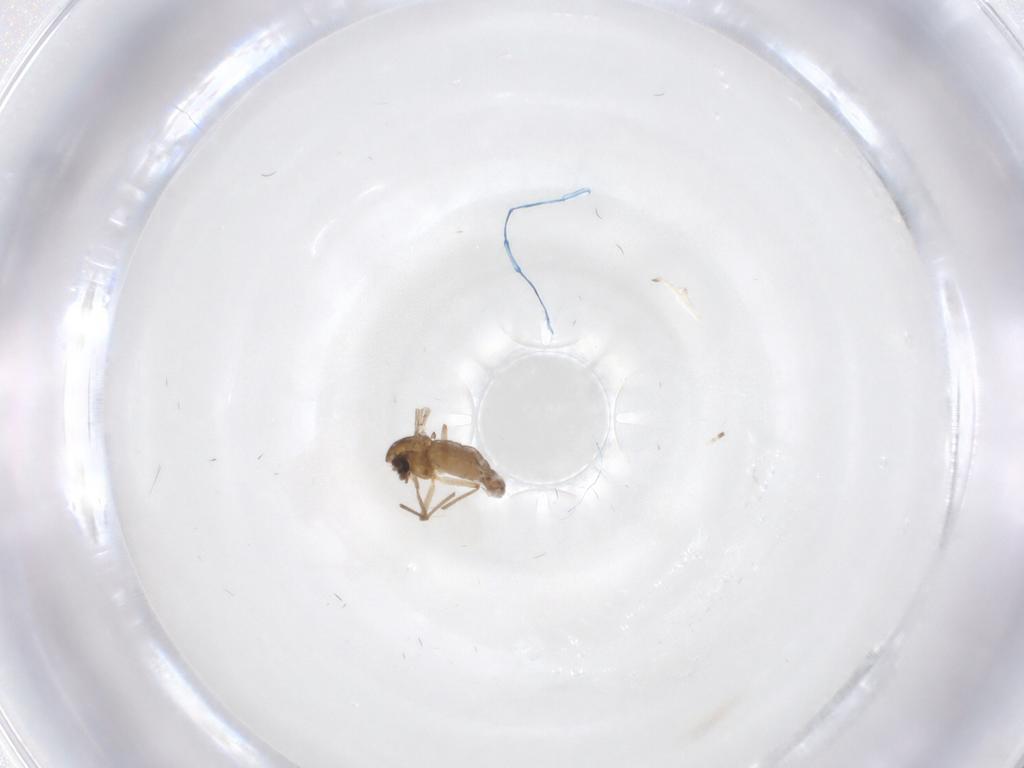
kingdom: Animalia
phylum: Arthropoda
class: Insecta
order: Diptera
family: Chironomidae
